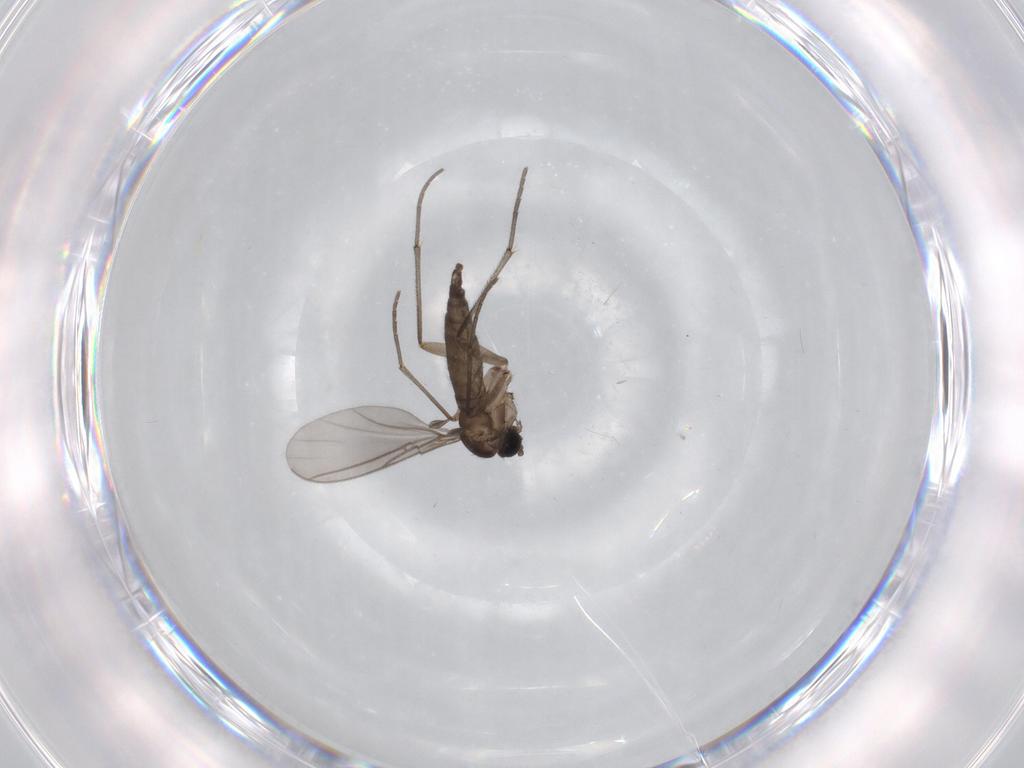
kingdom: Animalia
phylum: Arthropoda
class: Insecta
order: Diptera
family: Sciaridae
